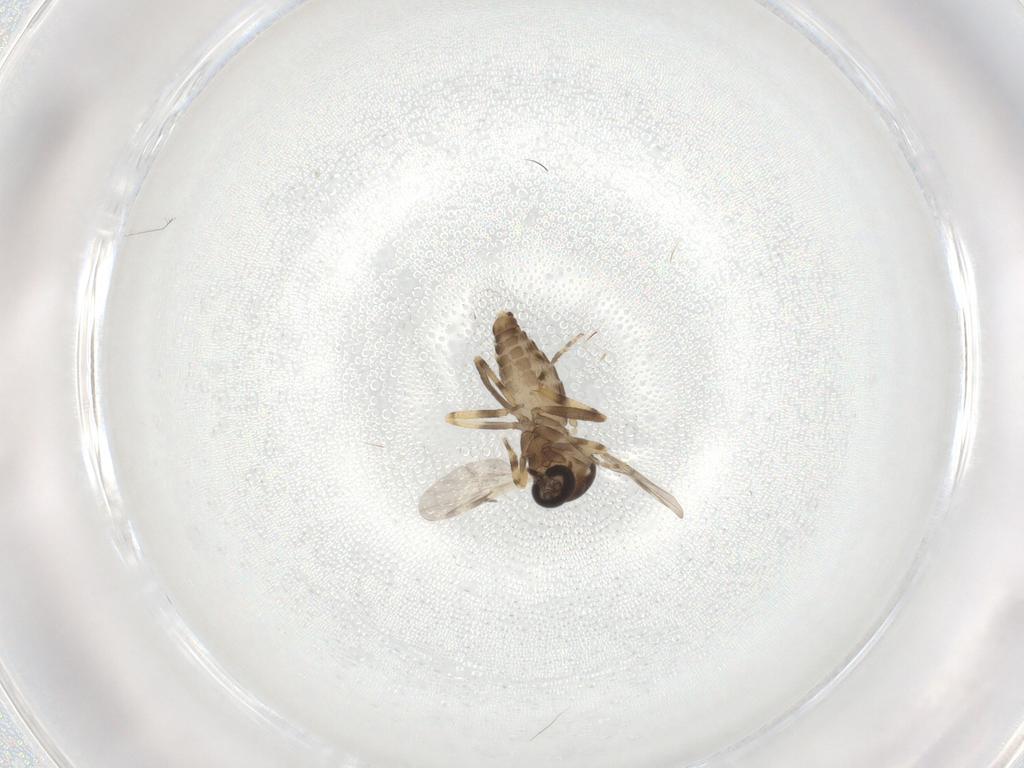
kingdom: Animalia
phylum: Arthropoda
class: Insecta
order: Diptera
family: Ceratopogonidae
